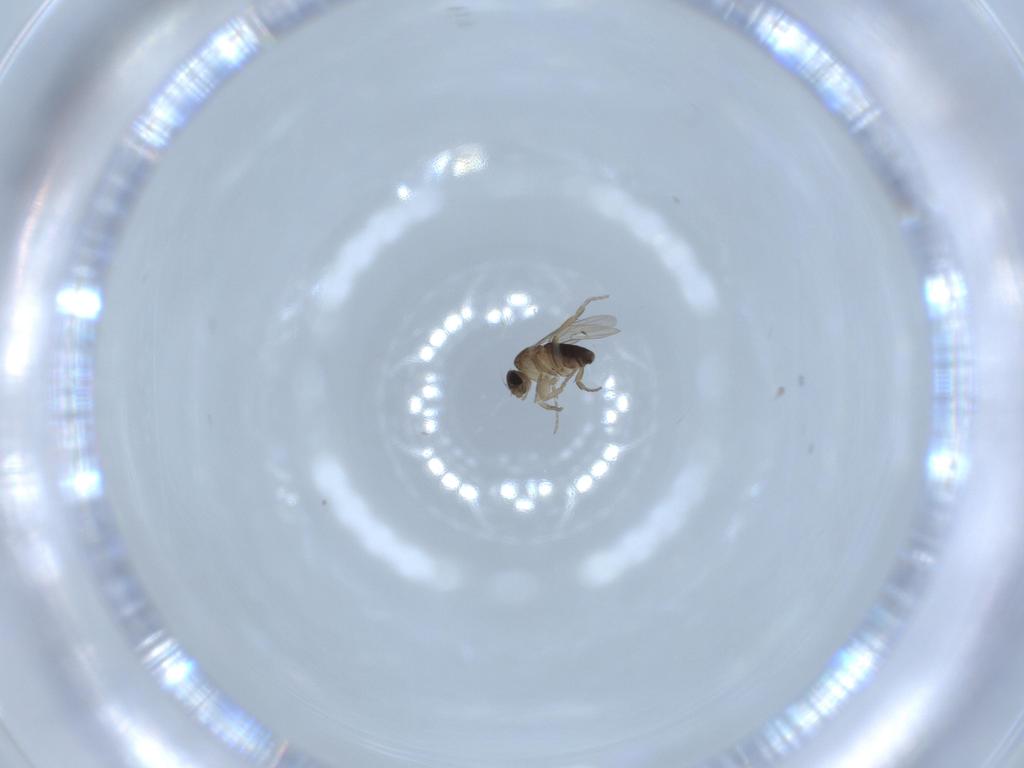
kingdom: Animalia
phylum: Arthropoda
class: Insecta
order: Diptera
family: Phoridae
